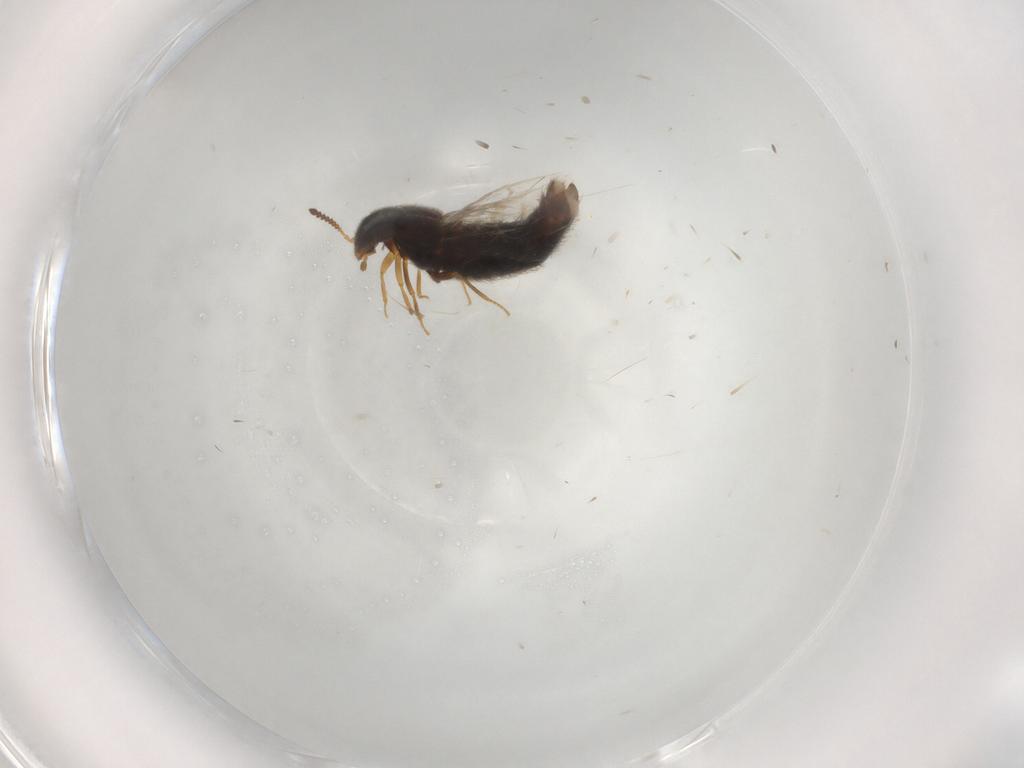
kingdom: Animalia
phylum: Arthropoda
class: Insecta
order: Coleoptera
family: Staphylinidae
